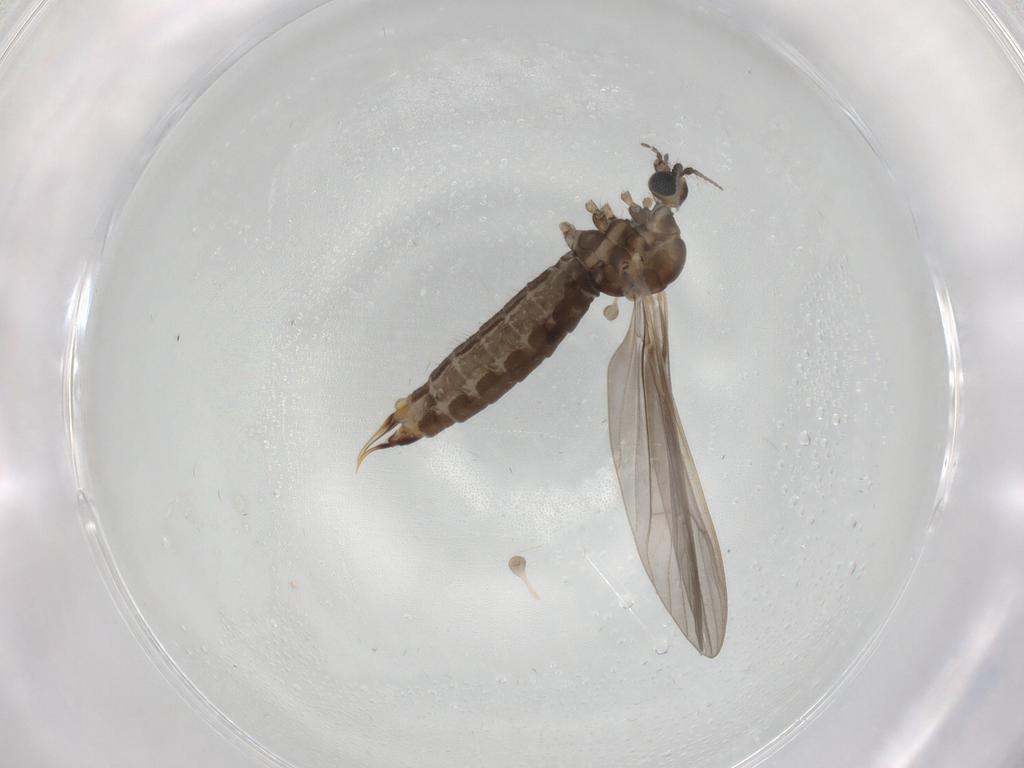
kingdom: Animalia
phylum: Arthropoda
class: Insecta
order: Diptera
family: Limoniidae
